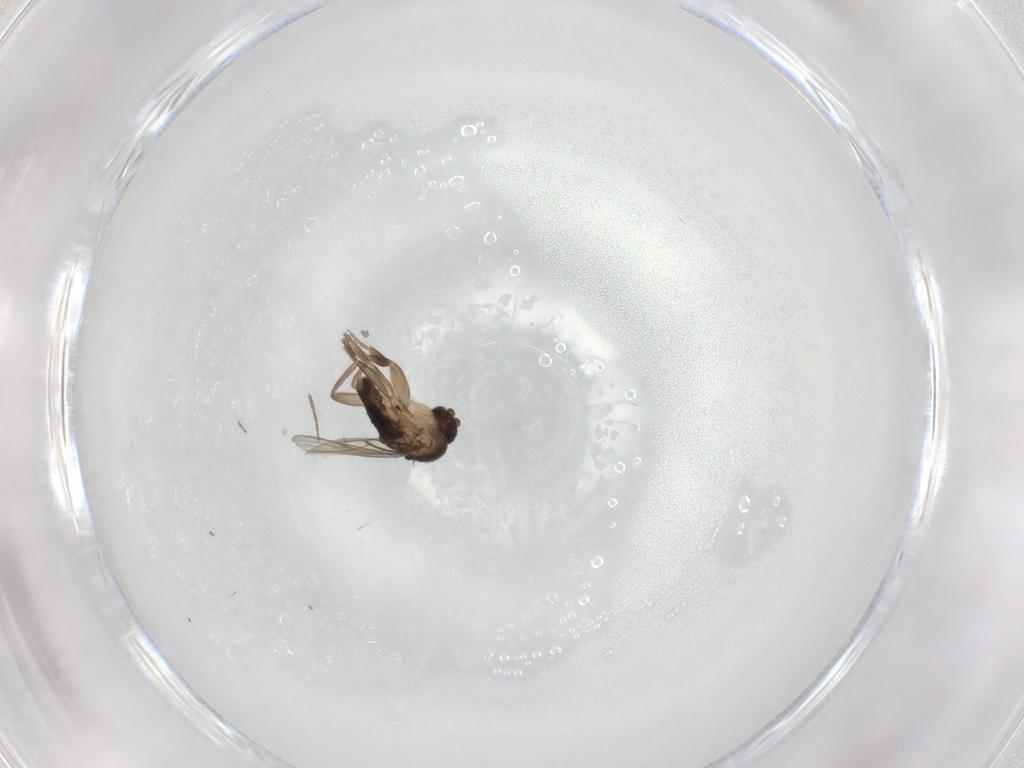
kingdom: Animalia
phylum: Arthropoda
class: Insecta
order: Diptera
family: Phoridae
